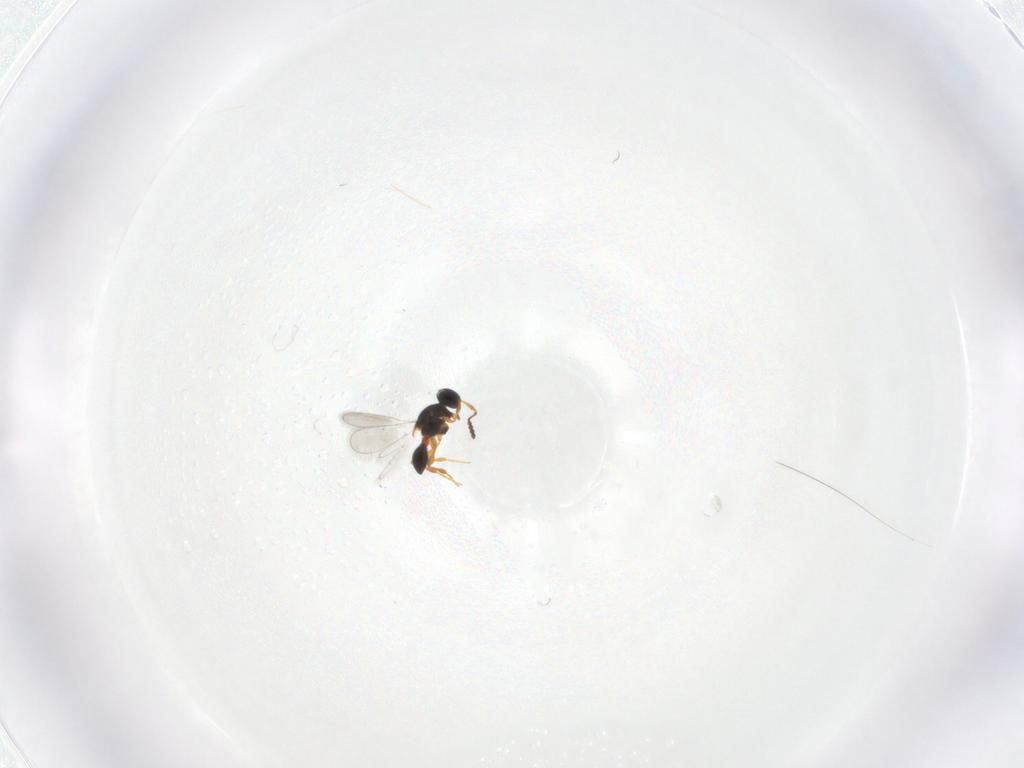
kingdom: Animalia
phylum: Arthropoda
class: Insecta
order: Hymenoptera
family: Platygastridae
